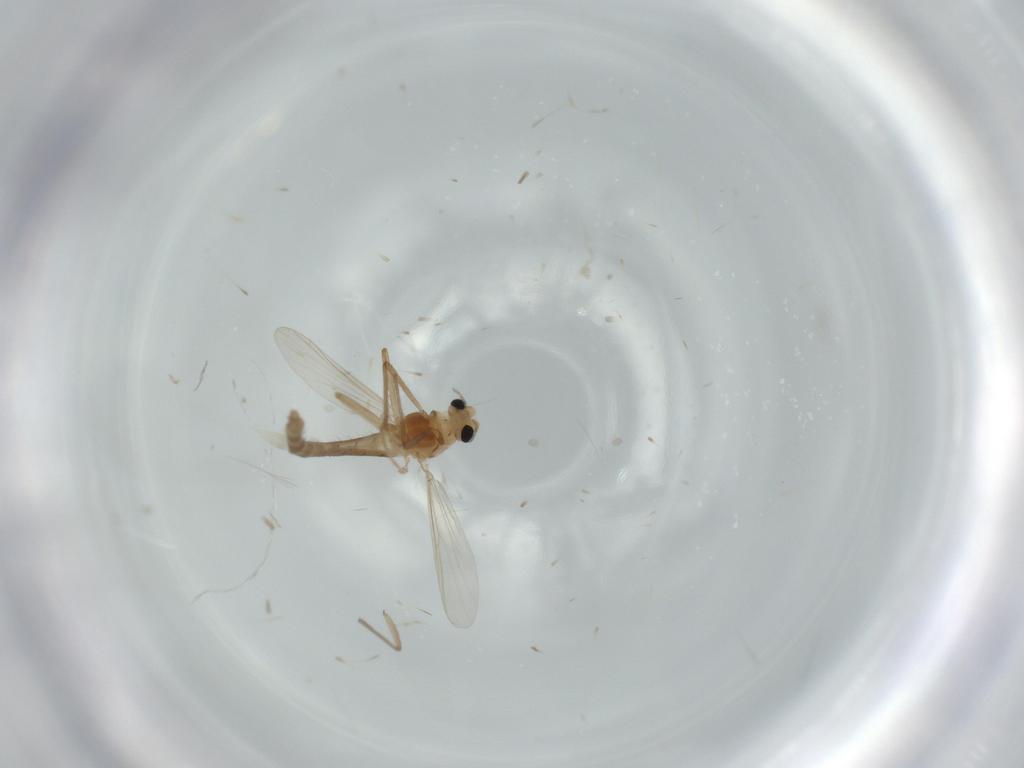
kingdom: Animalia
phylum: Arthropoda
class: Insecta
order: Diptera
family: Chironomidae
